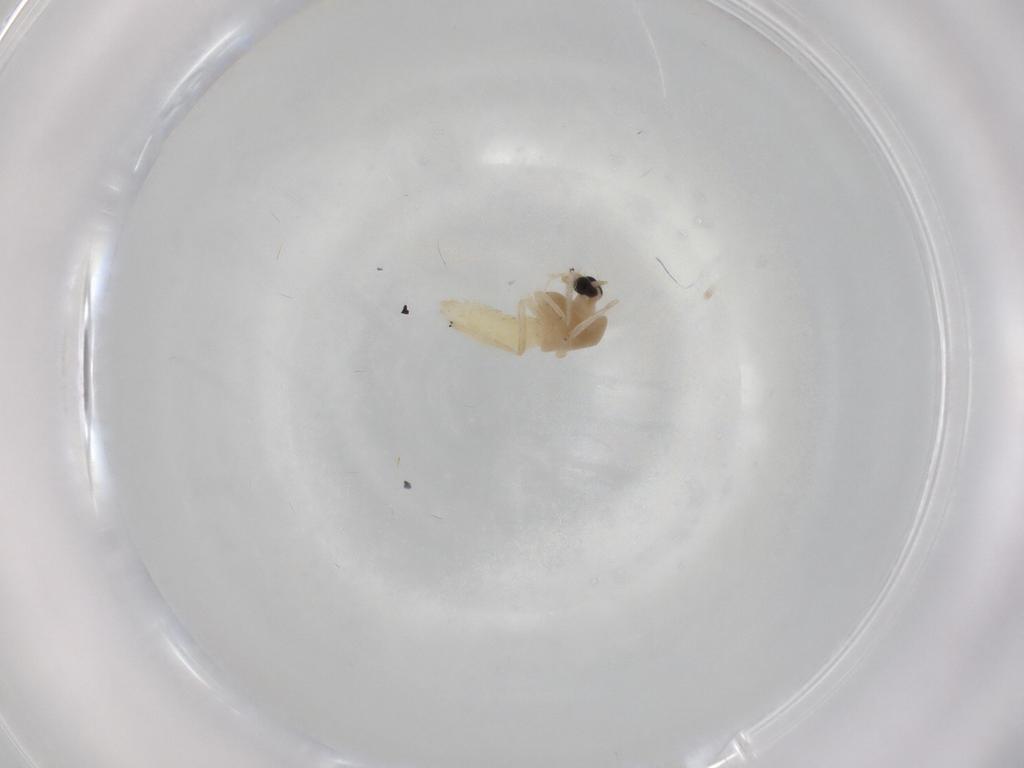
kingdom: Animalia
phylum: Arthropoda
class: Insecta
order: Diptera
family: Chironomidae
